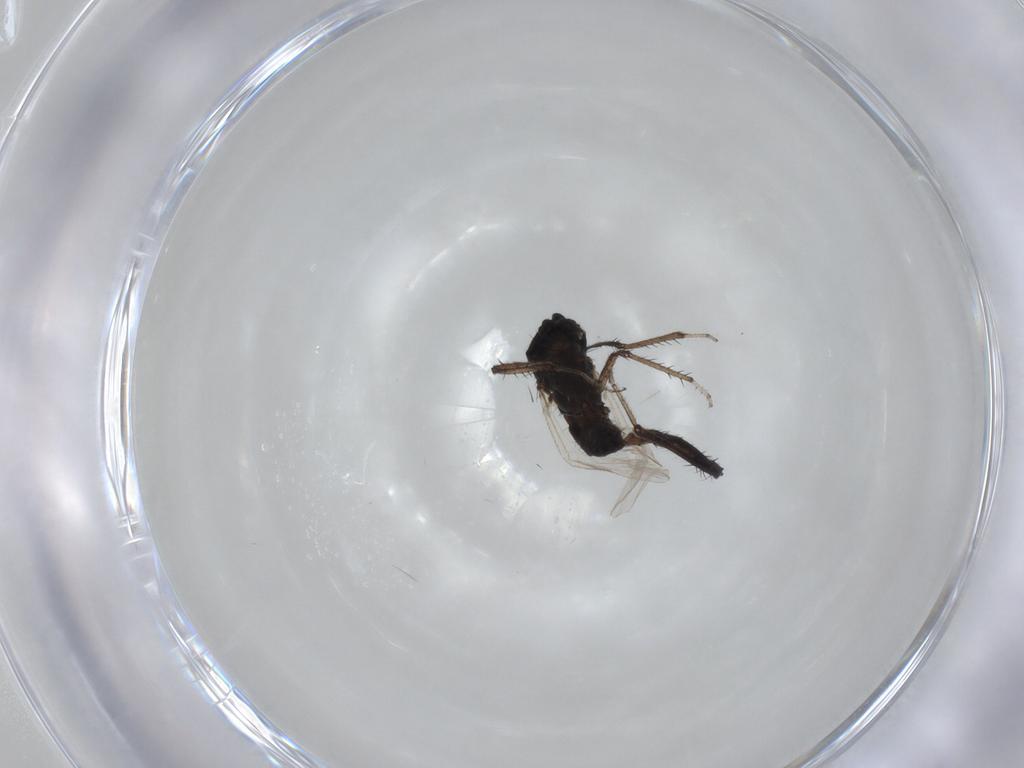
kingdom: Animalia
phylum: Arthropoda
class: Insecta
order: Diptera
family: Ceratopogonidae
